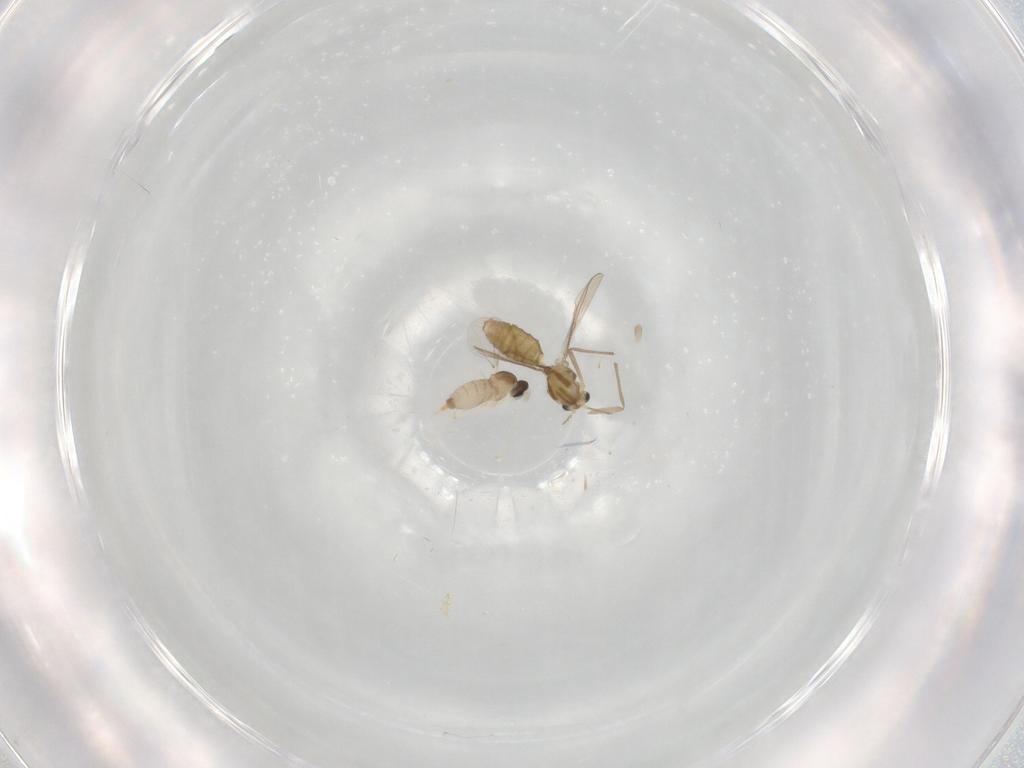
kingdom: Animalia
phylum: Arthropoda
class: Insecta
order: Diptera
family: Cecidomyiidae
